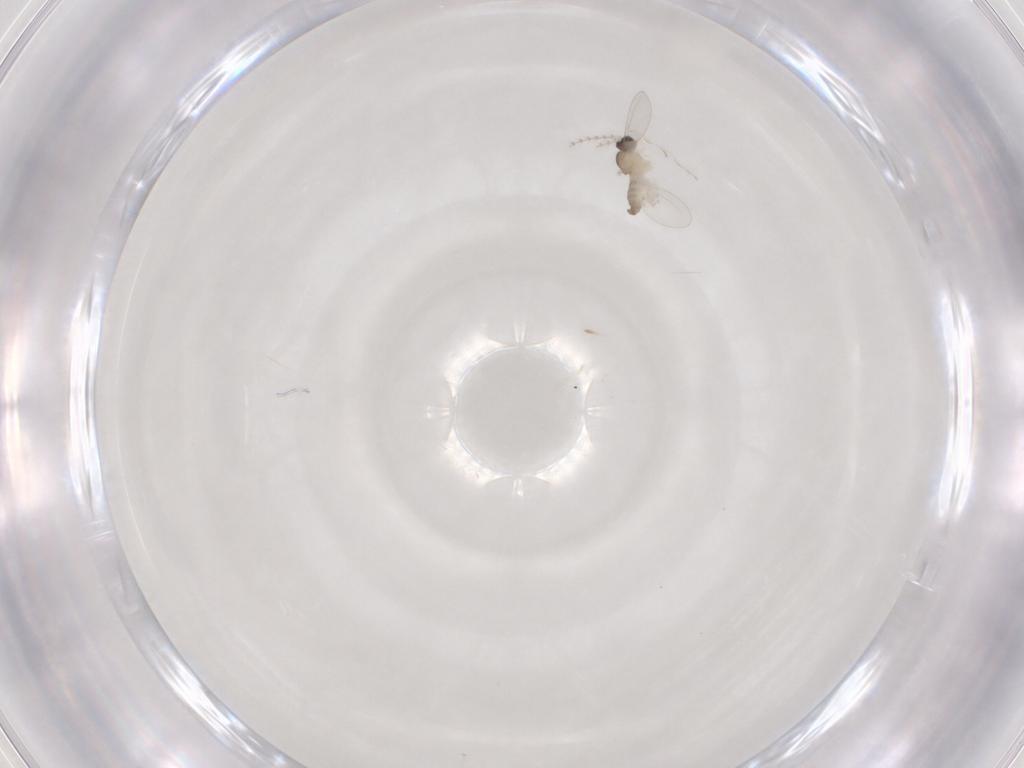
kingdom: Animalia
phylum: Arthropoda
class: Insecta
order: Diptera
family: Cecidomyiidae
